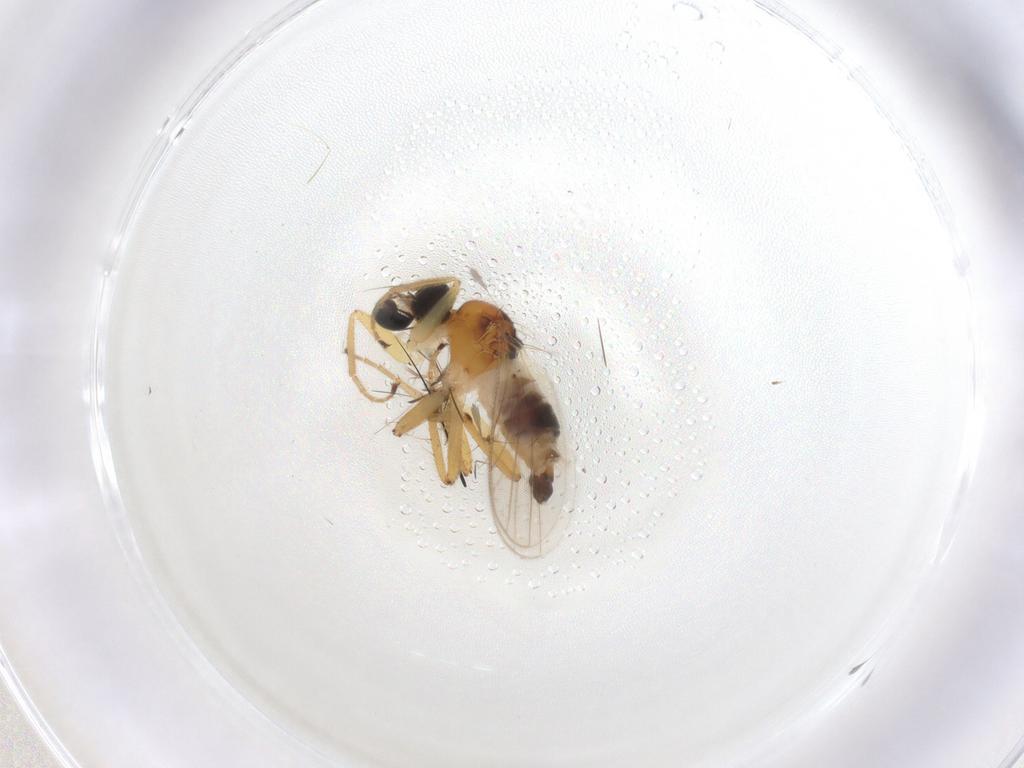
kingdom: Animalia
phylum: Arthropoda
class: Insecta
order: Diptera
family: Hybotidae
